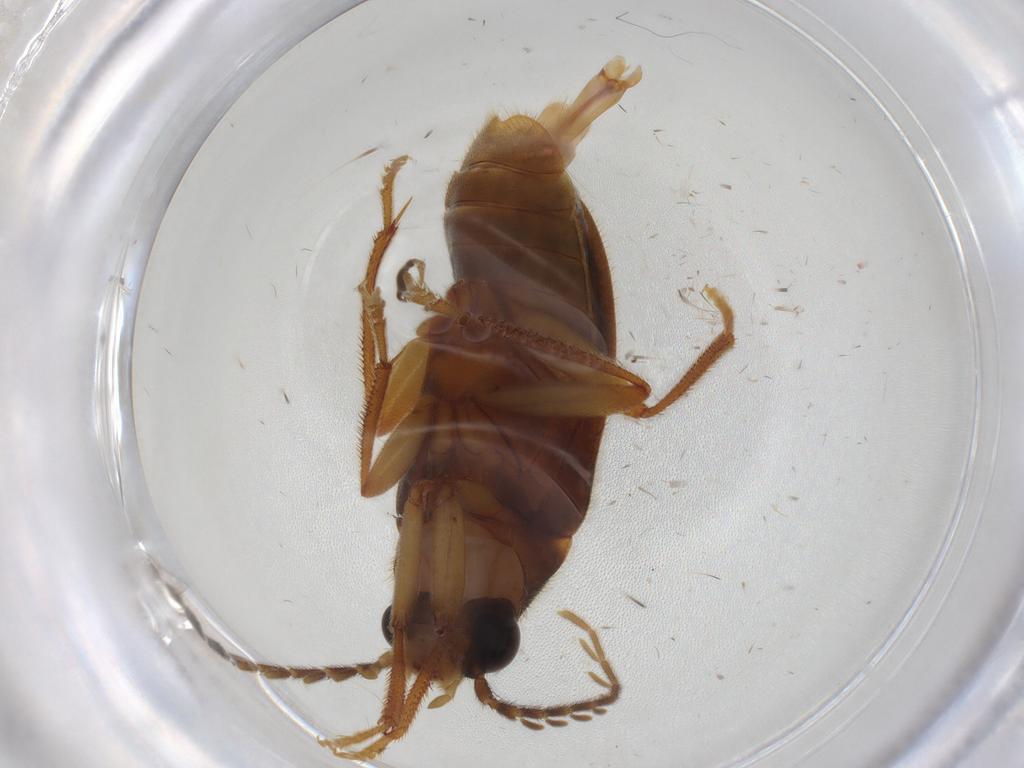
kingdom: Animalia
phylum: Arthropoda
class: Insecta
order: Coleoptera
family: Ptilodactylidae
